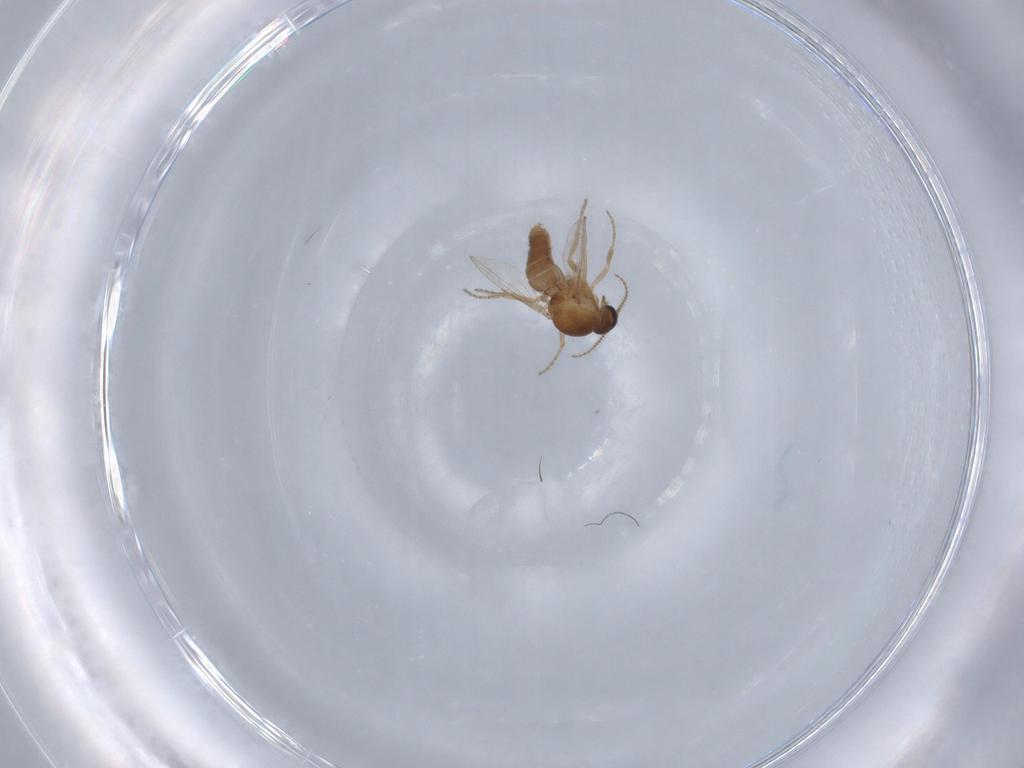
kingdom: Animalia
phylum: Arthropoda
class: Insecta
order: Diptera
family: Ceratopogonidae
